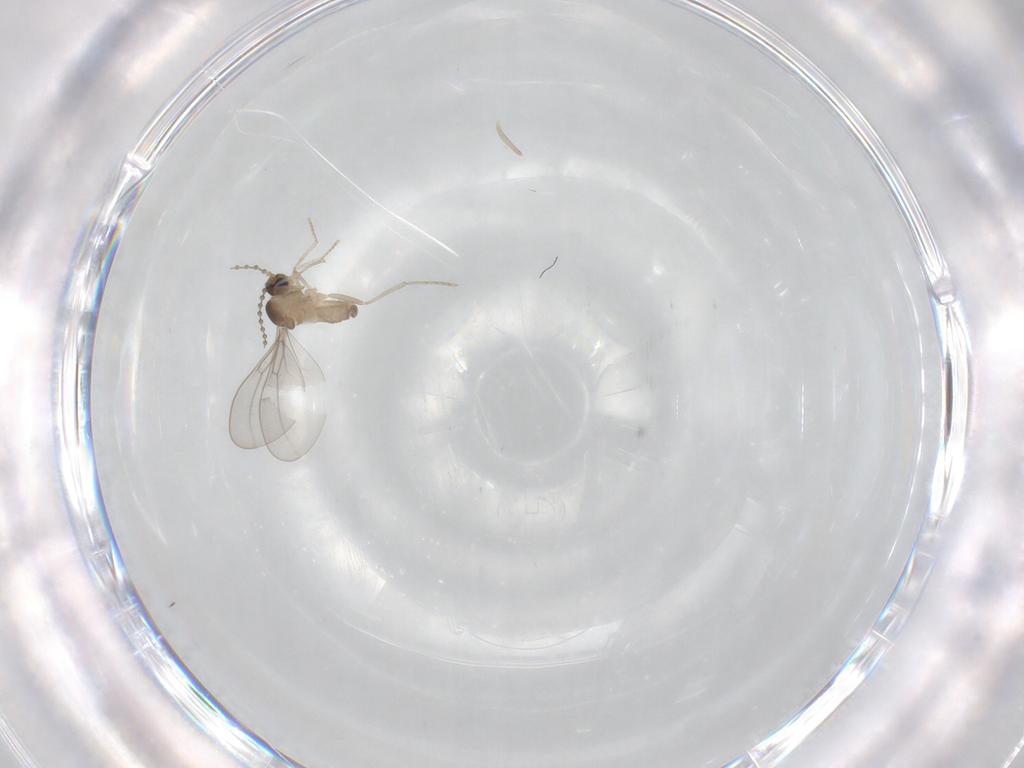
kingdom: Animalia
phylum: Arthropoda
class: Insecta
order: Diptera
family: Cecidomyiidae
